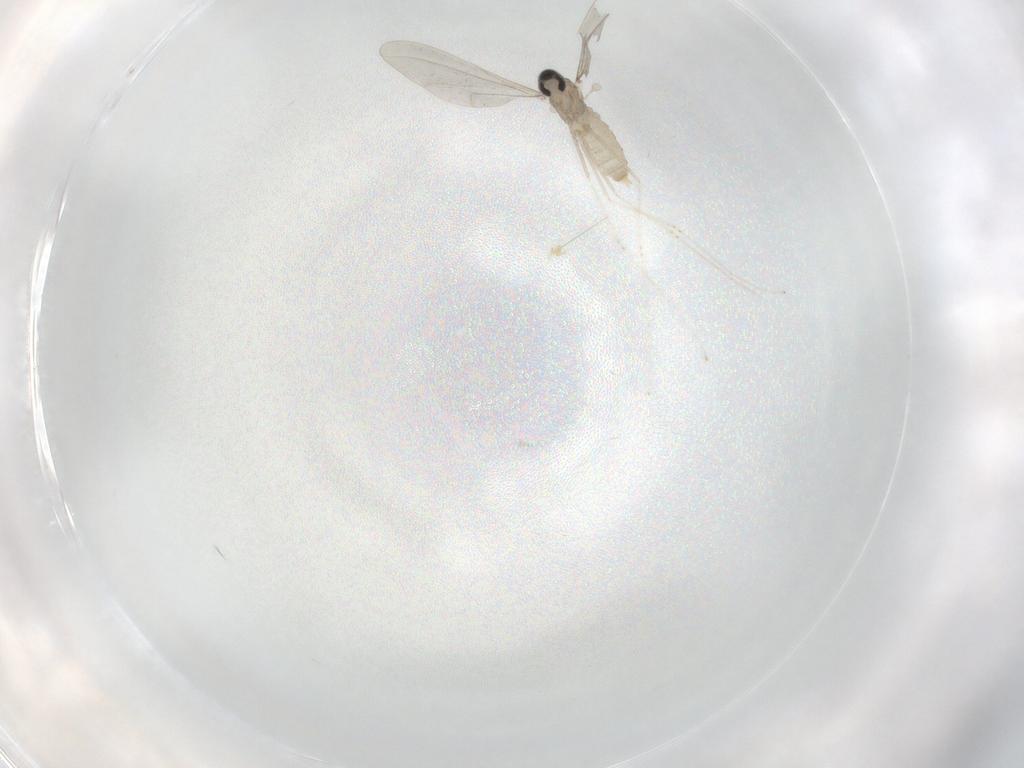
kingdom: Animalia
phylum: Arthropoda
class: Insecta
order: Diptera
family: Cecidomyiidae
